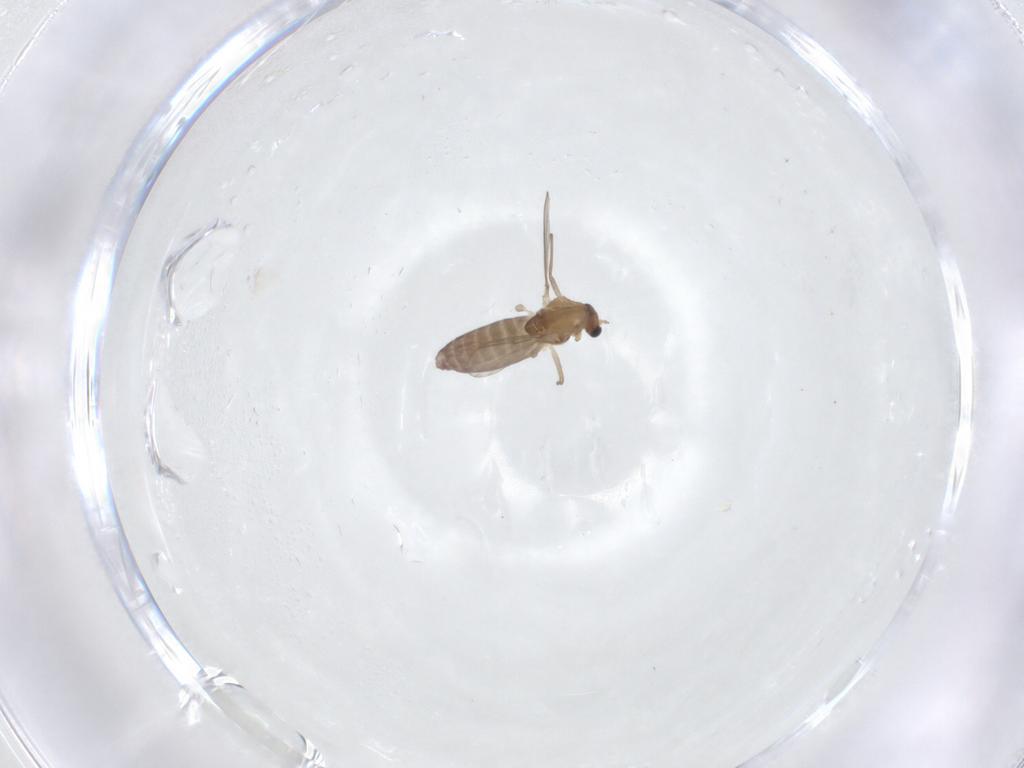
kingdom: Animalia
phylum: Arthropoda
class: Insecta
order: Diptera
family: Chironomidae
